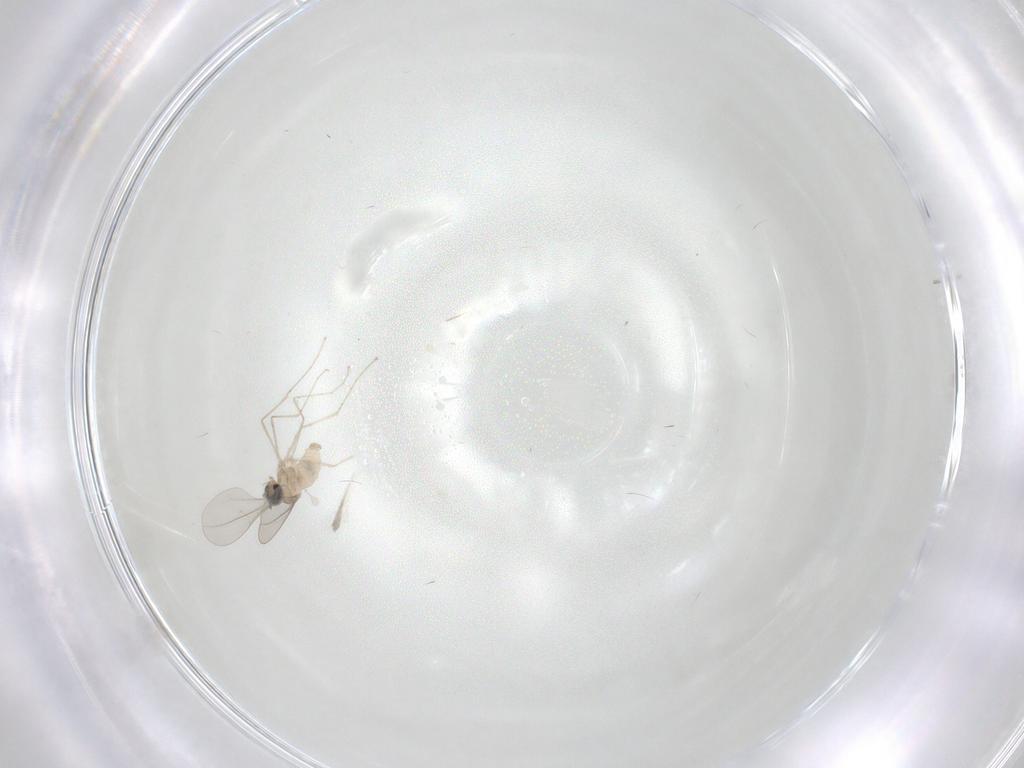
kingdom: Animalia
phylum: Arthropoda
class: Insecta
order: Diptera
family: Cecidomyiidae
